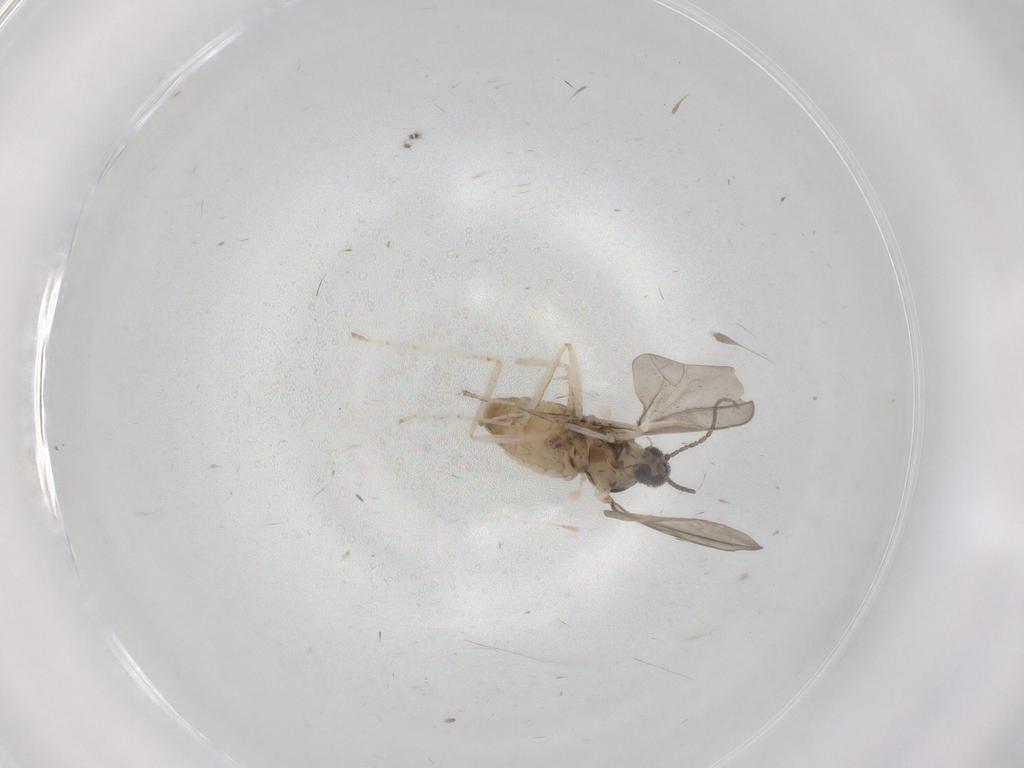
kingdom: Animalia
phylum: Arthropoda
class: Insecta
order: Diptera
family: Cecidomyiidae
